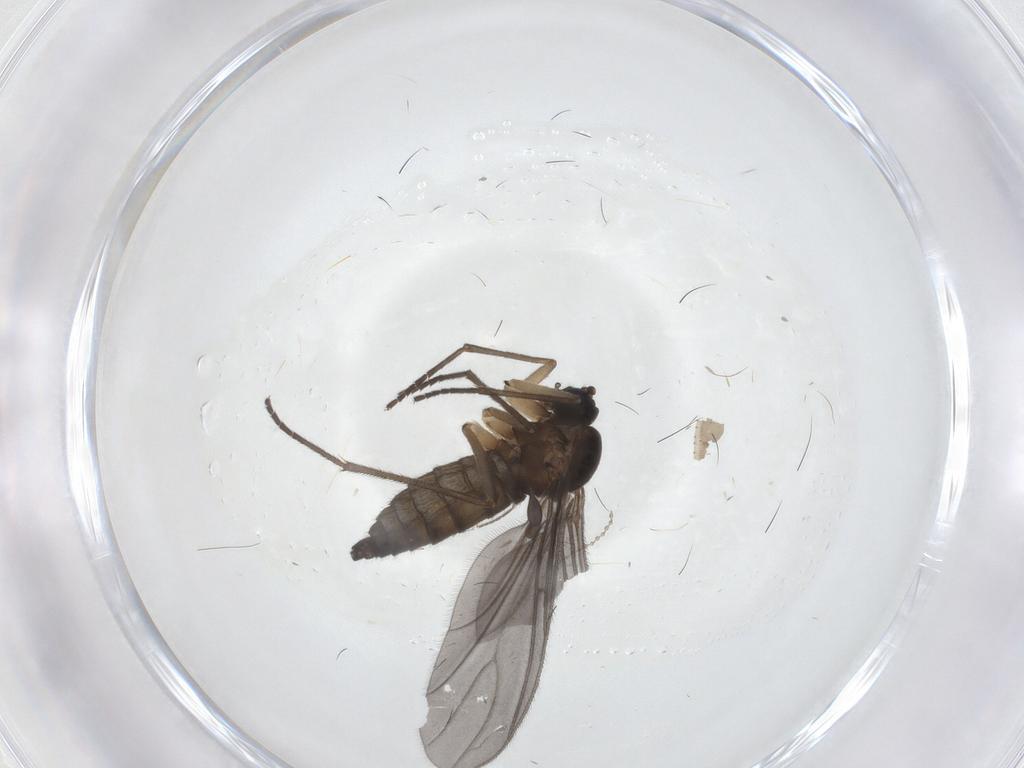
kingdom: Animalia
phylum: Arthropoda
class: Insecta
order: Diptera
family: Sciaridae
